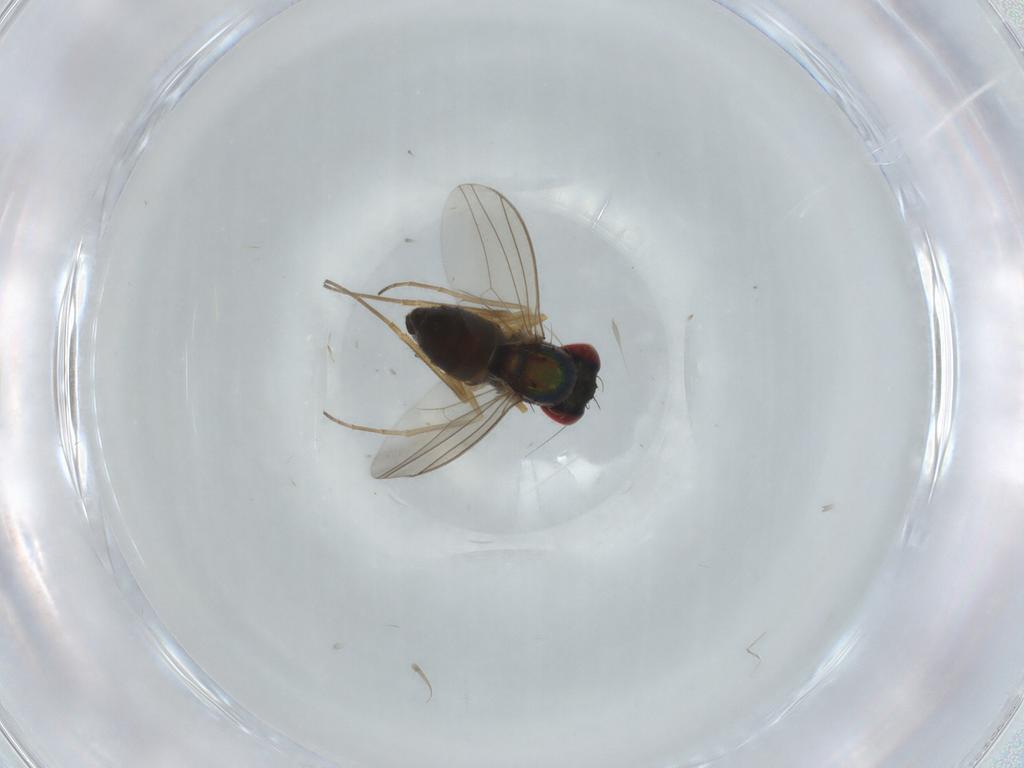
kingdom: Animalia
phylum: Arthropoda
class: Insecta
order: Diptera
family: Dolichopodidae
